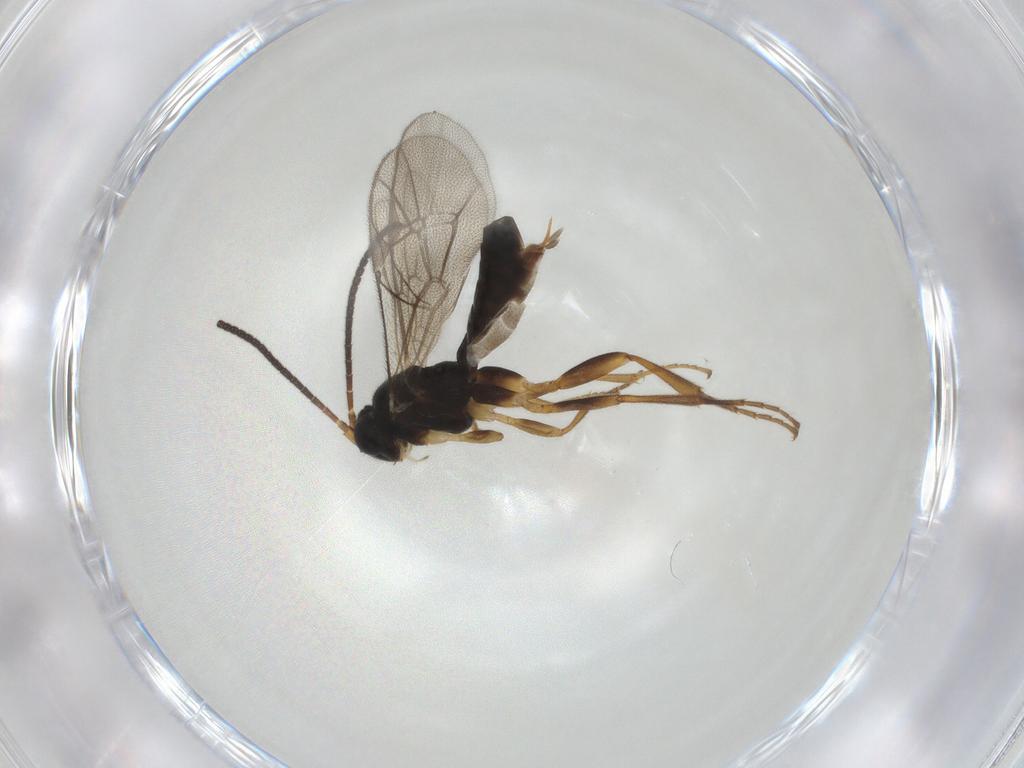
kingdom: Animalia
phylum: Arthropoda
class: Insecta
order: Hymenoptera
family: Ichneumonidae
